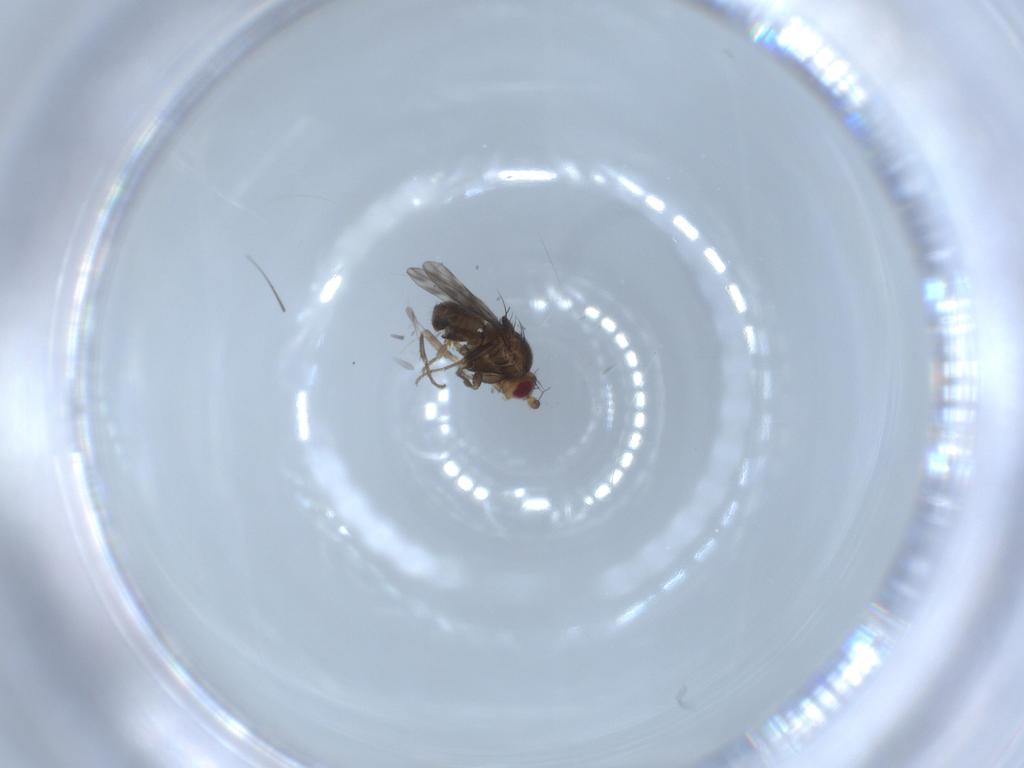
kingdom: Animalia
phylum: Arthropoda
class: Insecta
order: Diptera
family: Sphaeroceridae
